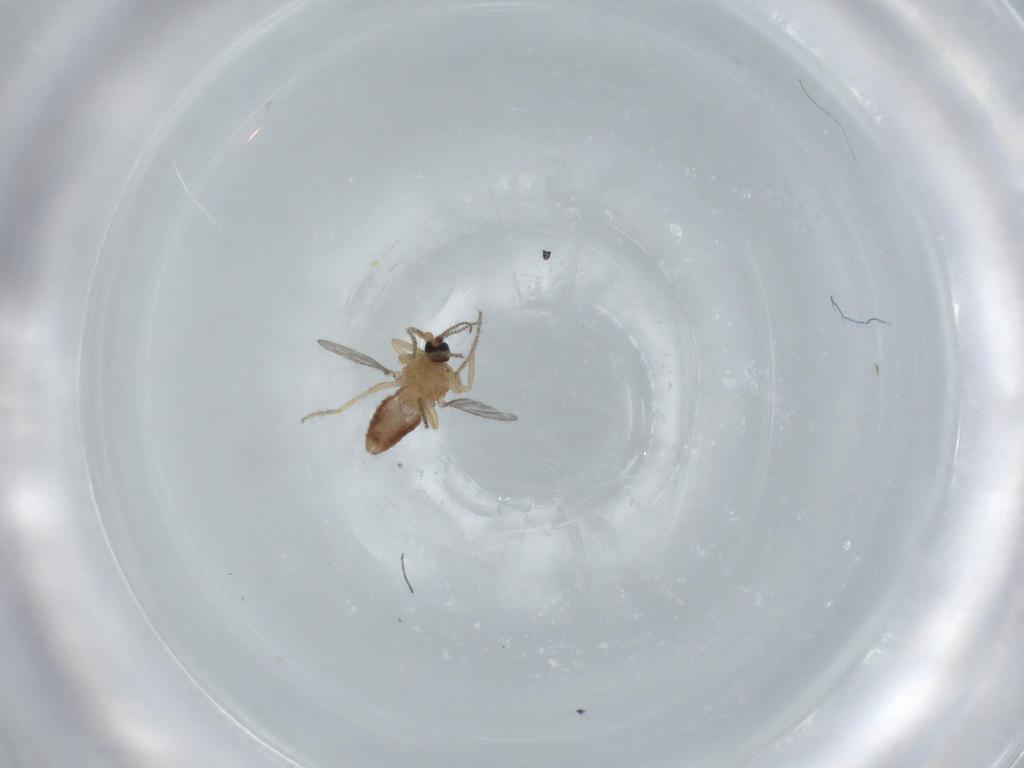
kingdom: Animalia
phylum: Arthropoda
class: Insecta
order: Diptera
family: Ceratopogonidae
